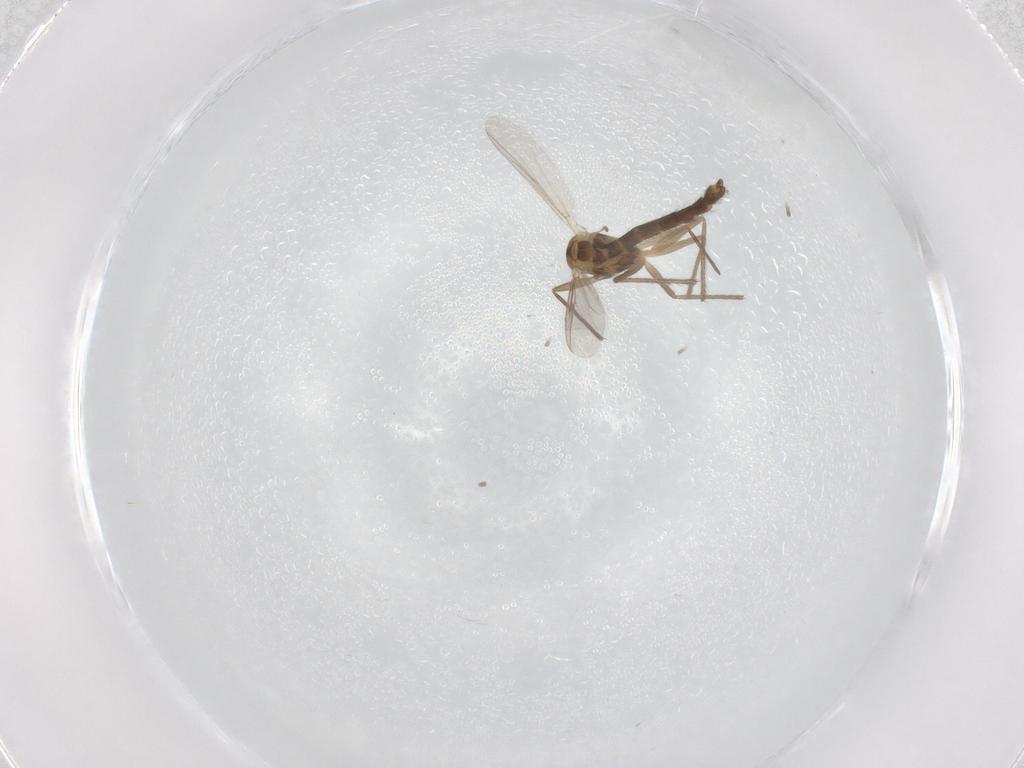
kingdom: Animalia
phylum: Arthropoda
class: Insecta
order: Diptera
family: Chironomidae
